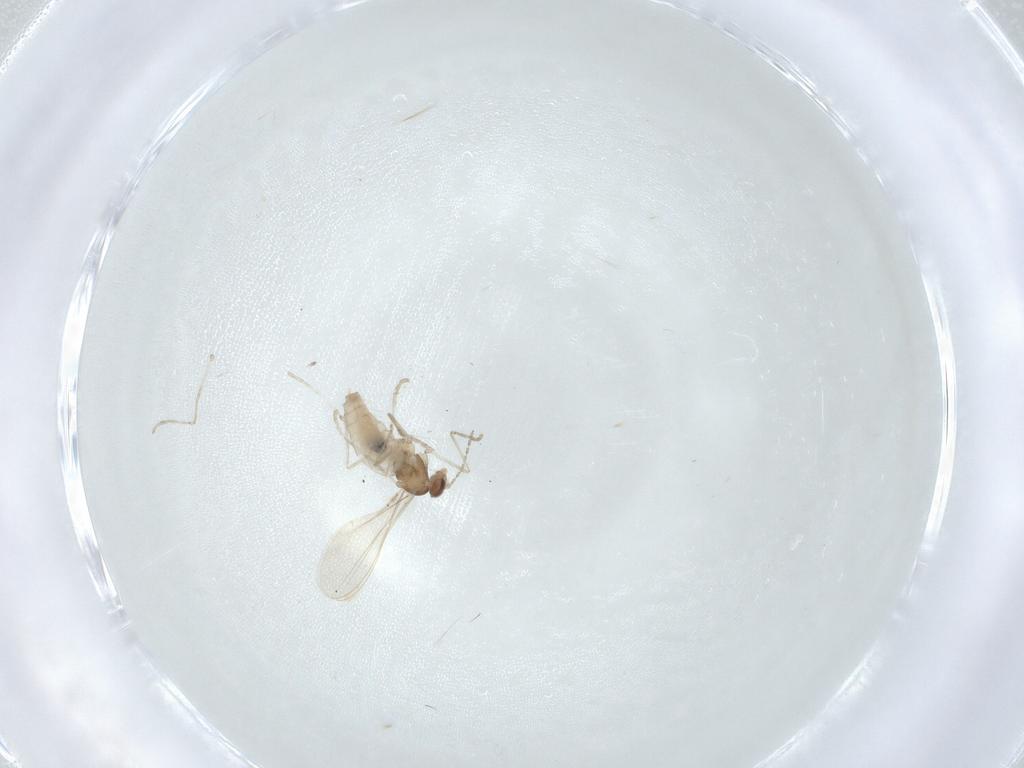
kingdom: Animalia
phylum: Arthropoda
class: Insecta
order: Diptera
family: Cecidomyiidae
